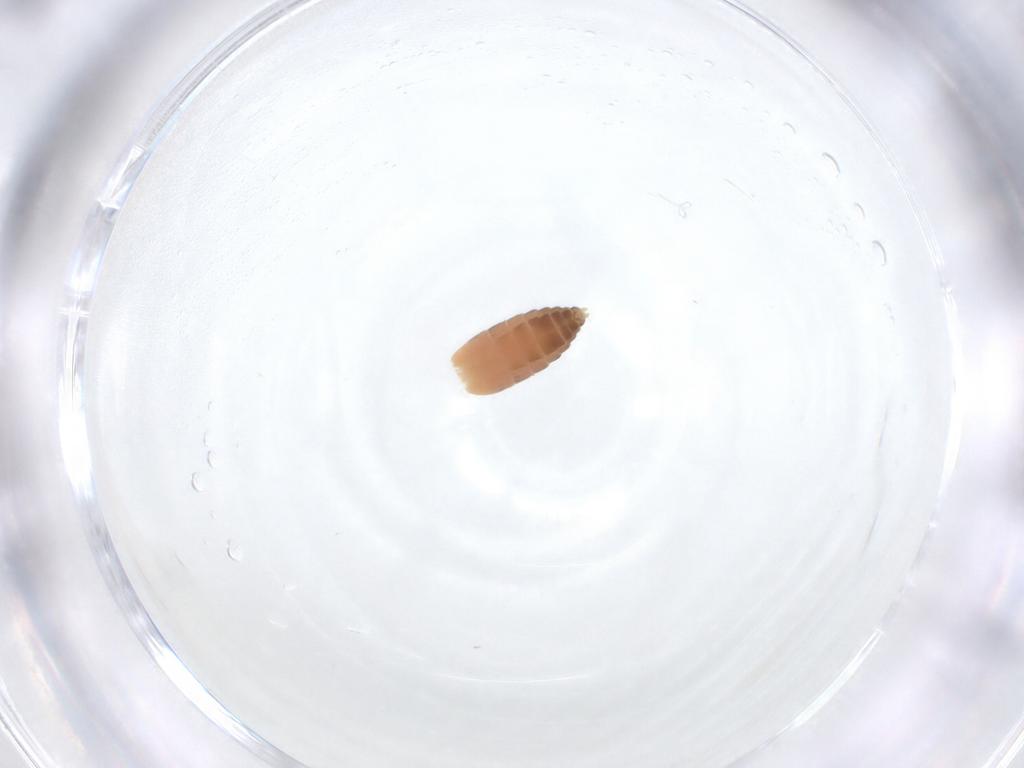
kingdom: Animalia
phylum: Arthropoda
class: Insecta
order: Diptera
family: Ceratopogonidae
